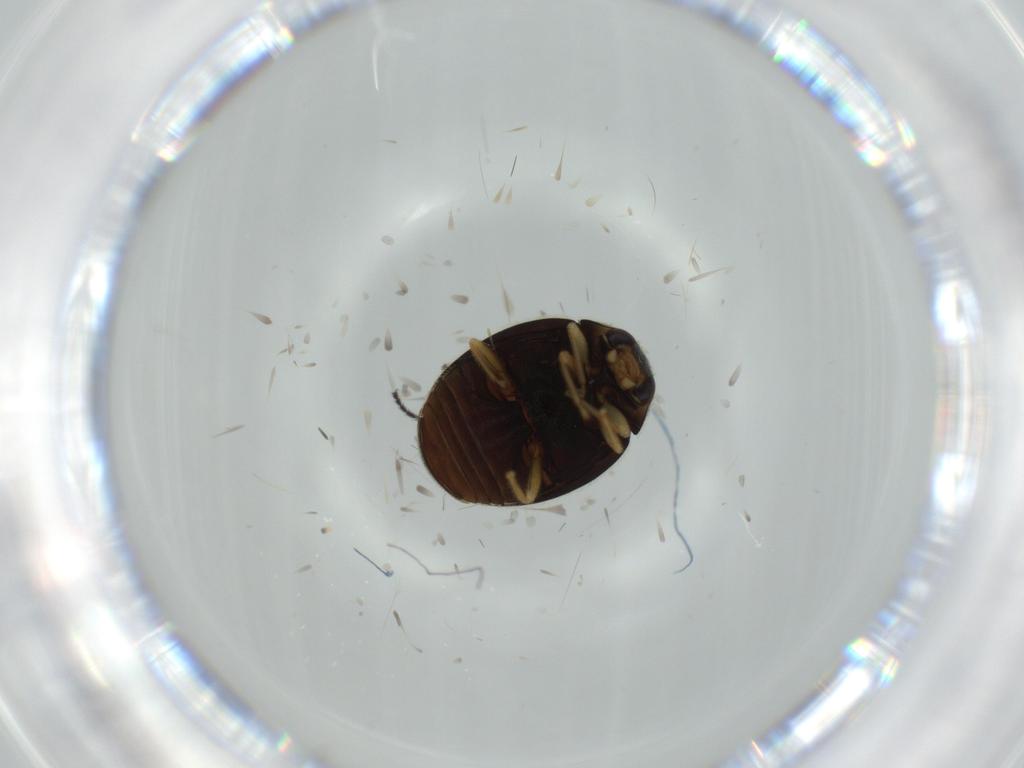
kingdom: Animalia
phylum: Arthropoda
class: Insecta
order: Coleoptera
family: Coccinellidae
